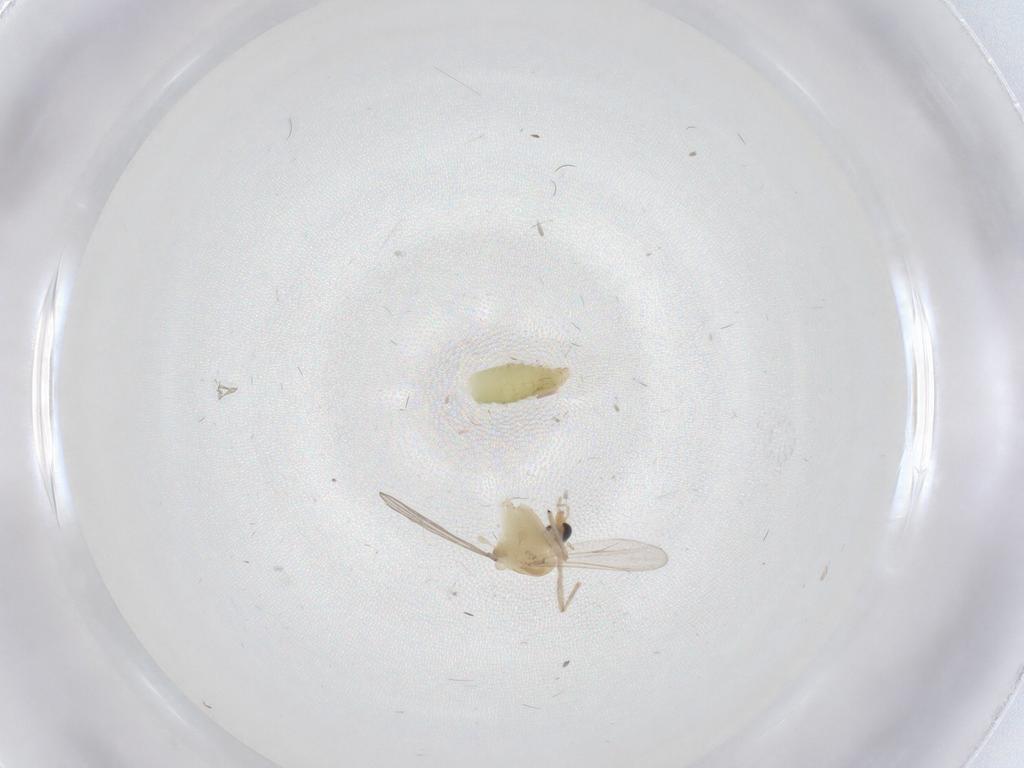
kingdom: Animalia
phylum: Arthropoda
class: Insecta
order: Diptera
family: Chironomidae
